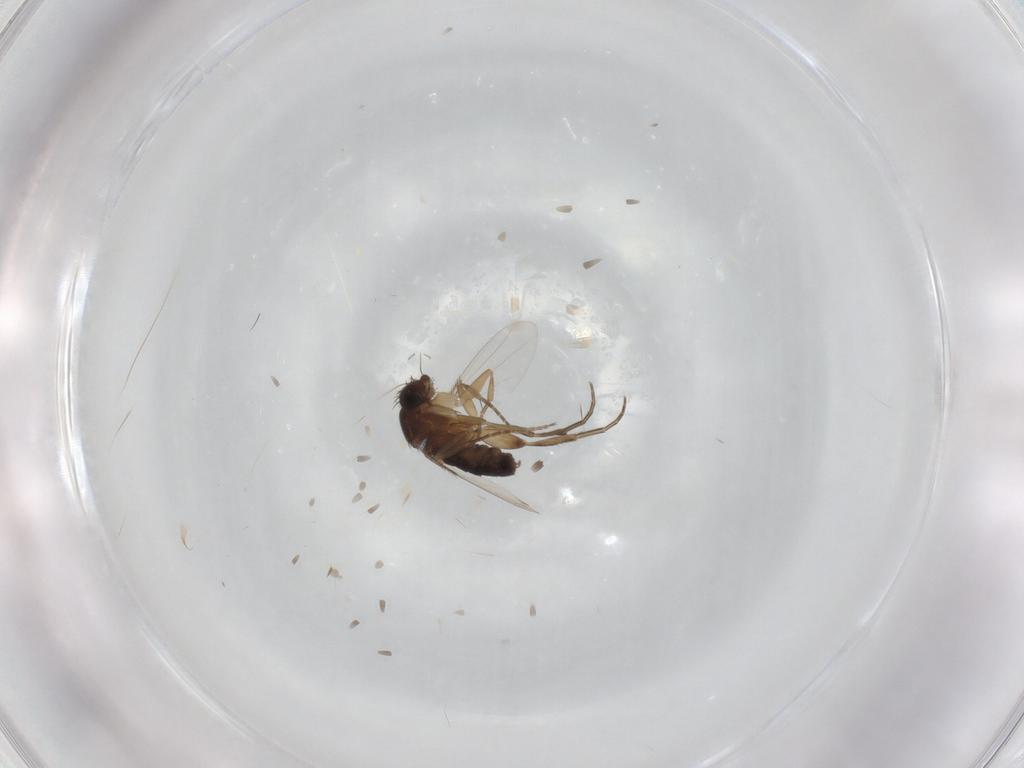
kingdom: Animalia
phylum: Arthropoda
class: Insecta
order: Diptera
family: Phoridae
